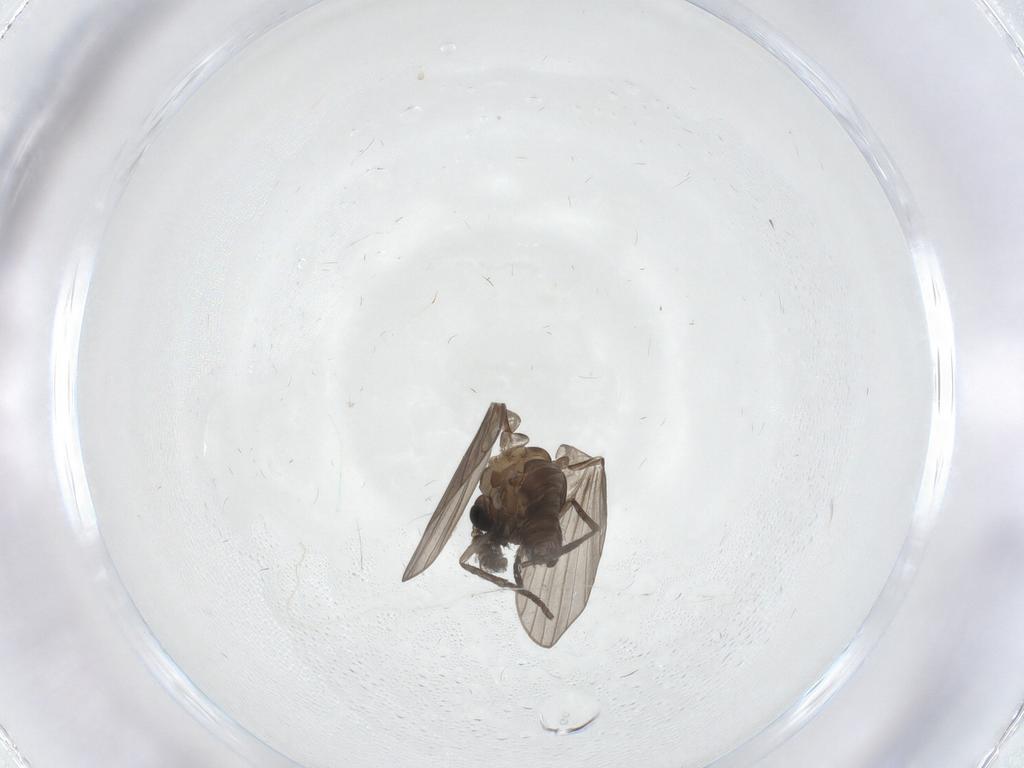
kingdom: Animalia
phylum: Arthropoda
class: Insecta
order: Diptera
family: Psychodidae
